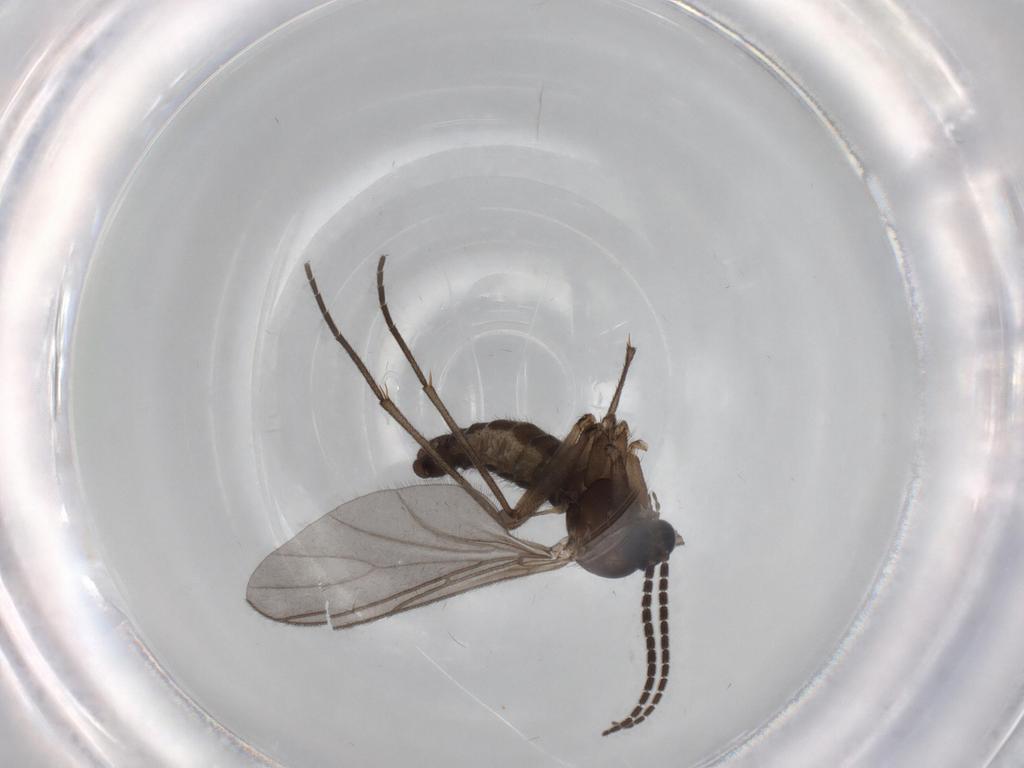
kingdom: Animalia
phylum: Arthropoda
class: Insecta
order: Diptera
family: Sciaridae
